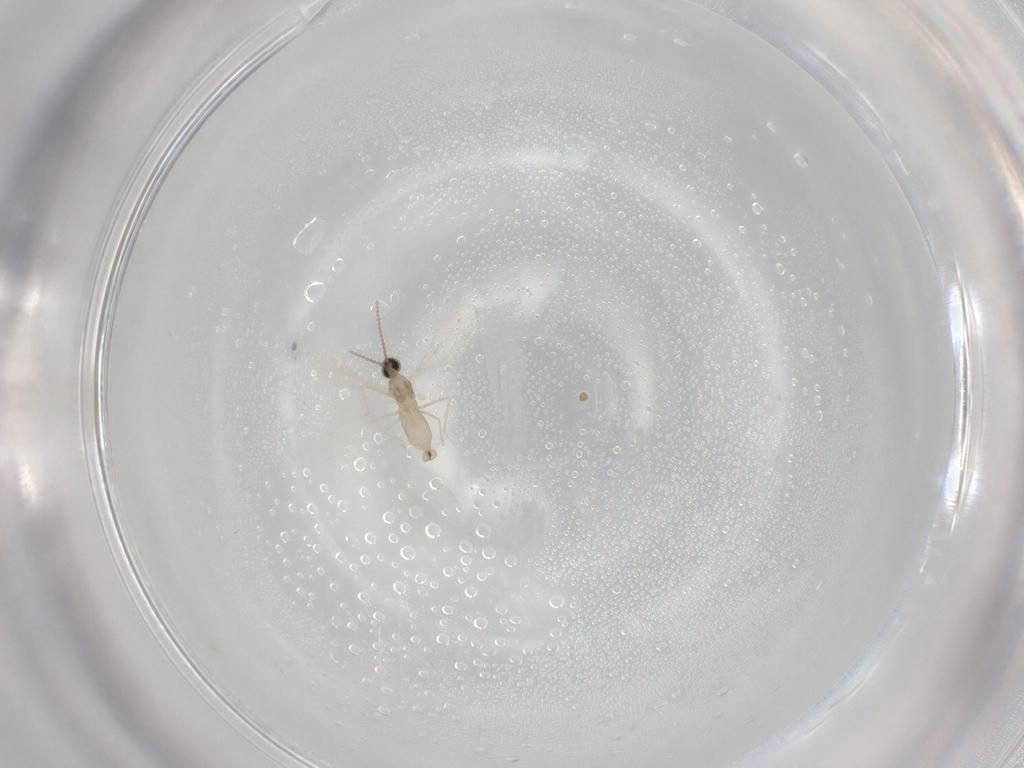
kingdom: Animalia
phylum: Arthropoda
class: Insecta
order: Diptera
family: Cecidomyiidae
